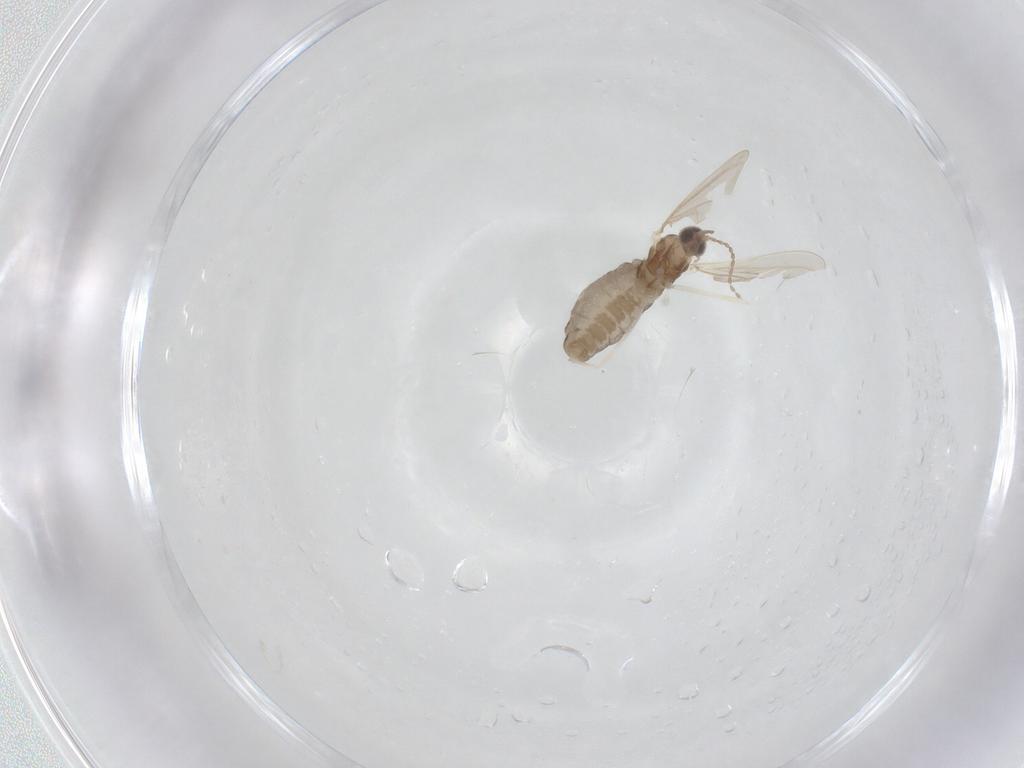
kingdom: Animalia
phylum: Arthropoda
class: Insecta
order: Diptera
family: Cecidomyiidae
